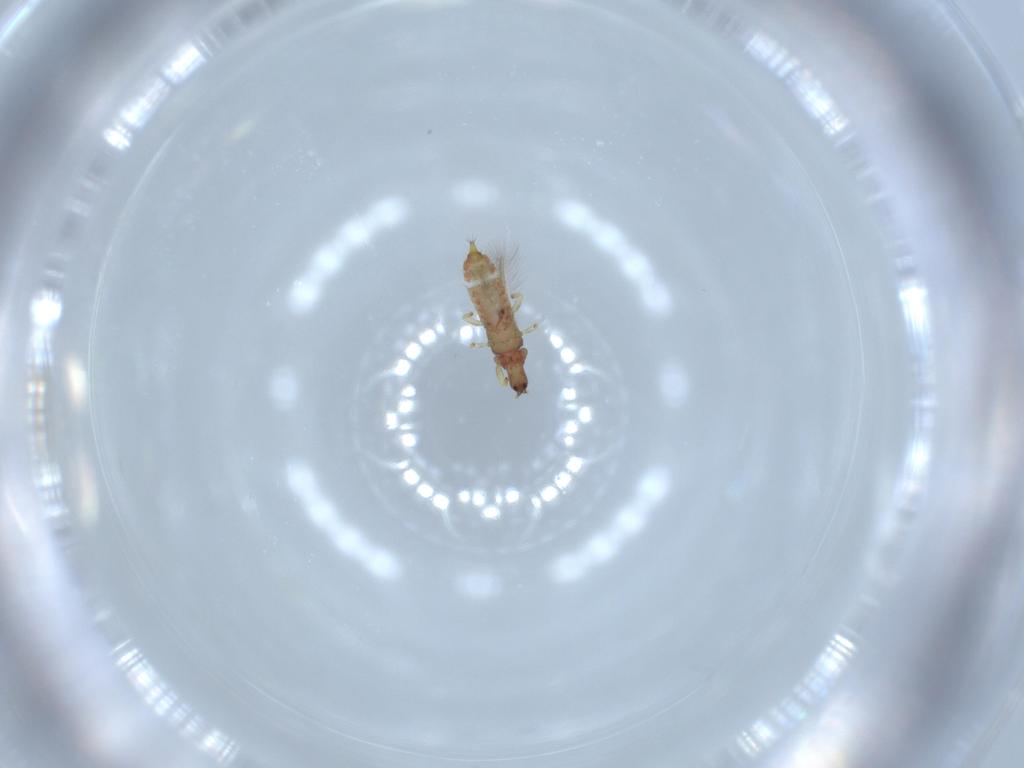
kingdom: Animalia
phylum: Arthropoda
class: Insecta
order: Thysanoptera
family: Phlaeothripidae
